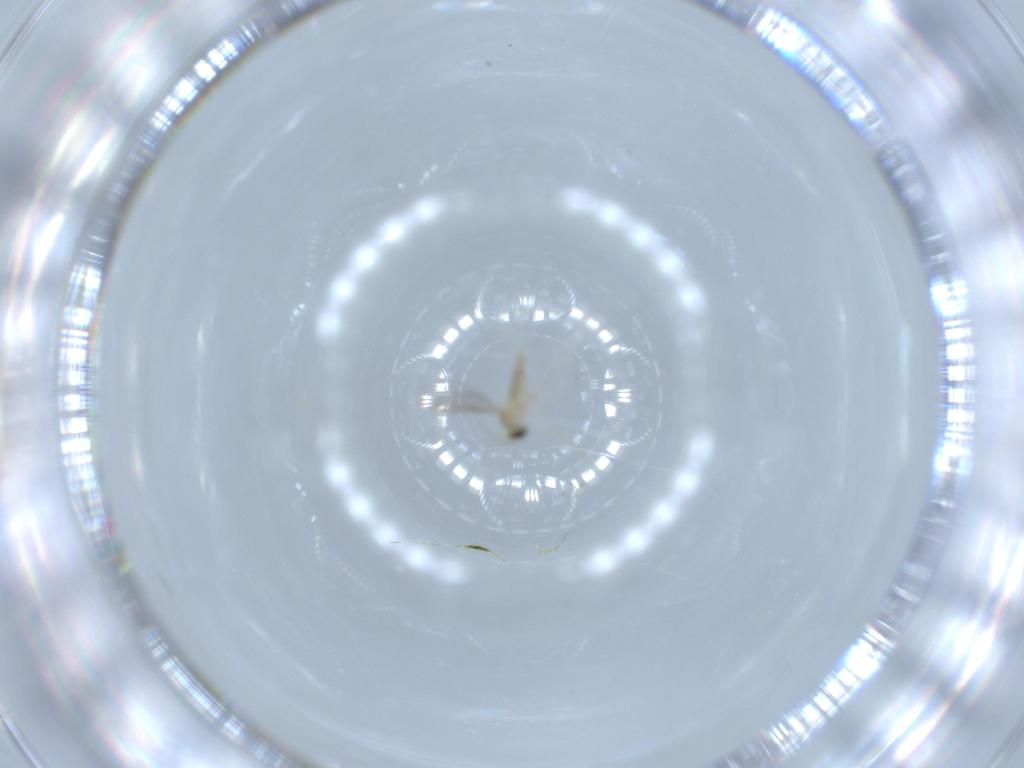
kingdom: Animalia
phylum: Arthropoda
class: Insecta
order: Diptera
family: Cecidomyiidae
